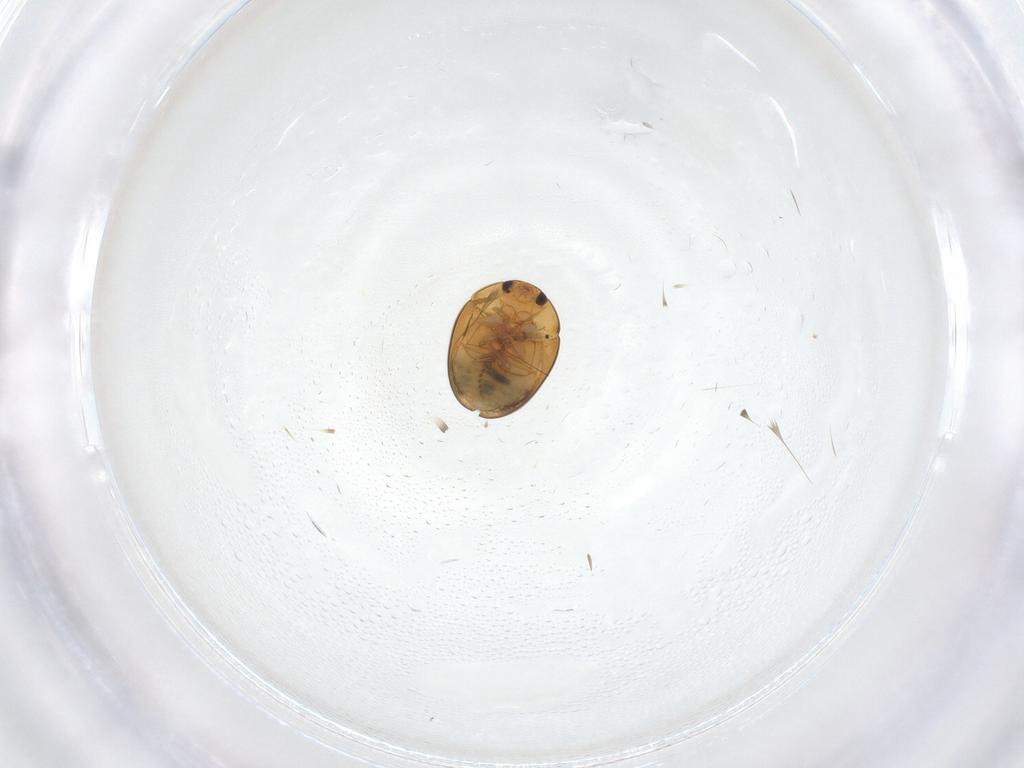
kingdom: Animalia
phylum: Arthropoda
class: Insecta
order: Coleoptera
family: Phalacridae
